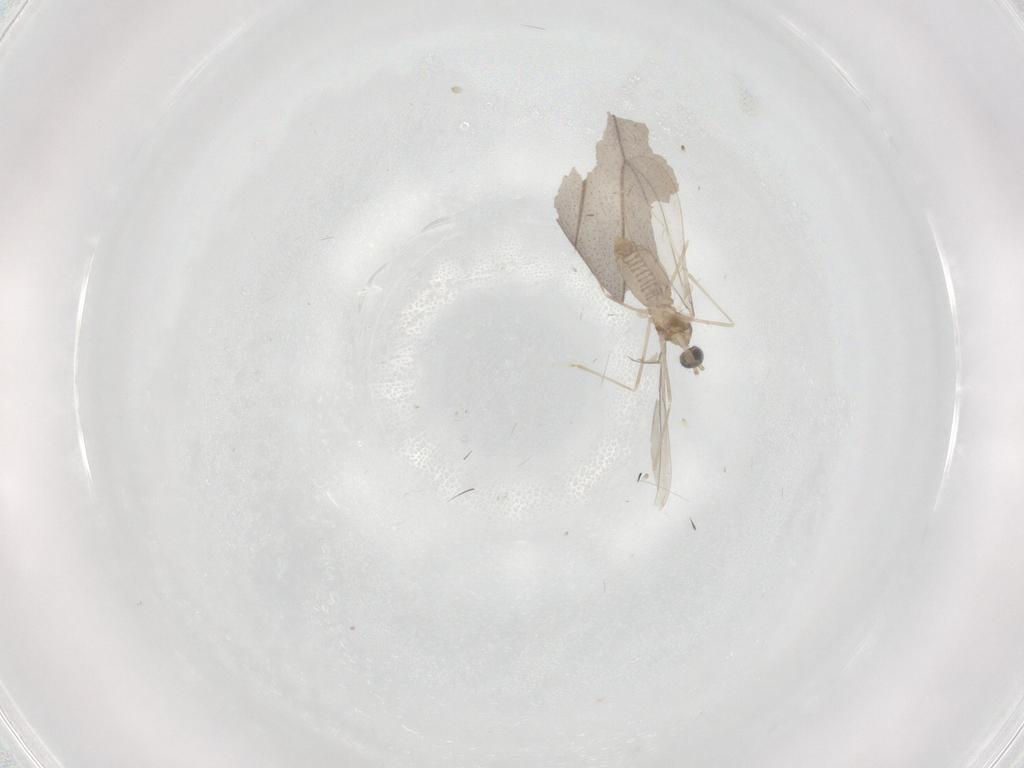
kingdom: Animalia
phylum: Arthropoda
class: Insecta
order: Diptera
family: Cecidomyiidae
